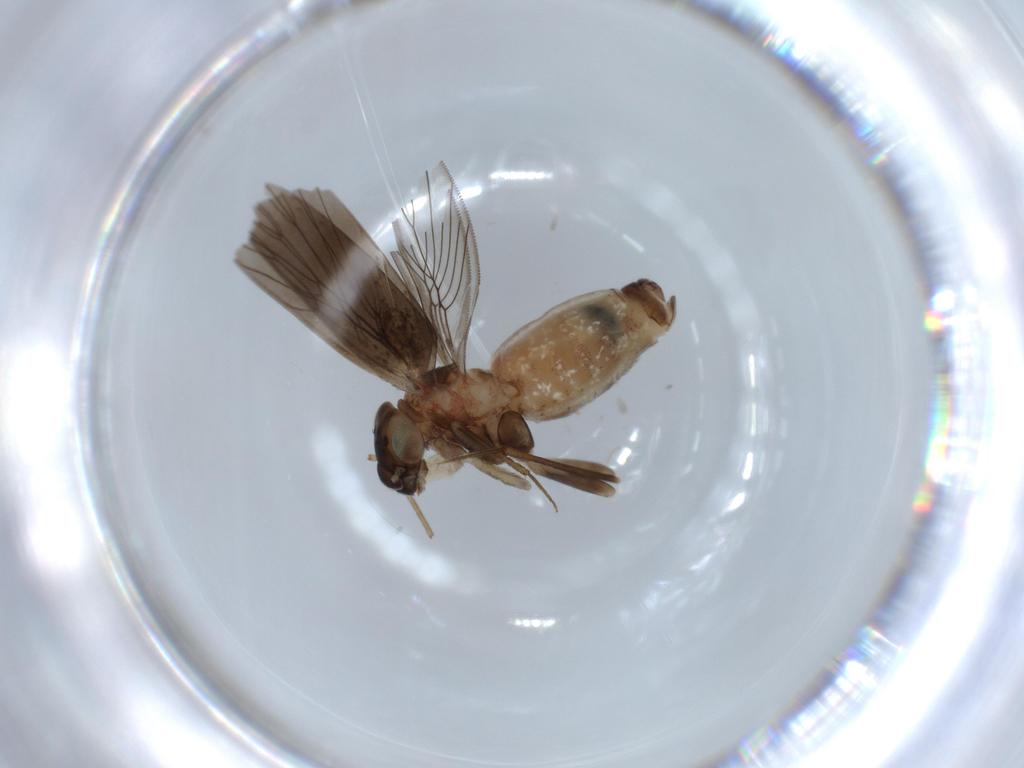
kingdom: Animalia
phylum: Arthropoda
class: Insecta
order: Psocodea
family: Lepidopsocidae
